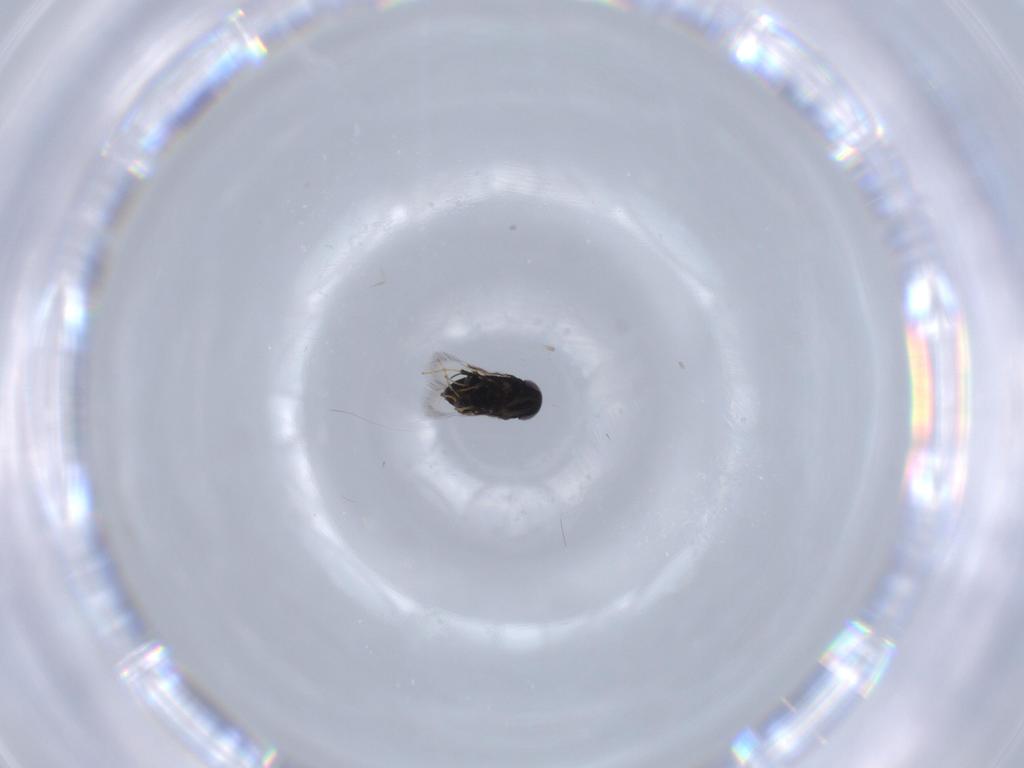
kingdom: Animalia
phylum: Arthropoda
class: Insecta
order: Hymenoptera
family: Signiphoridae
